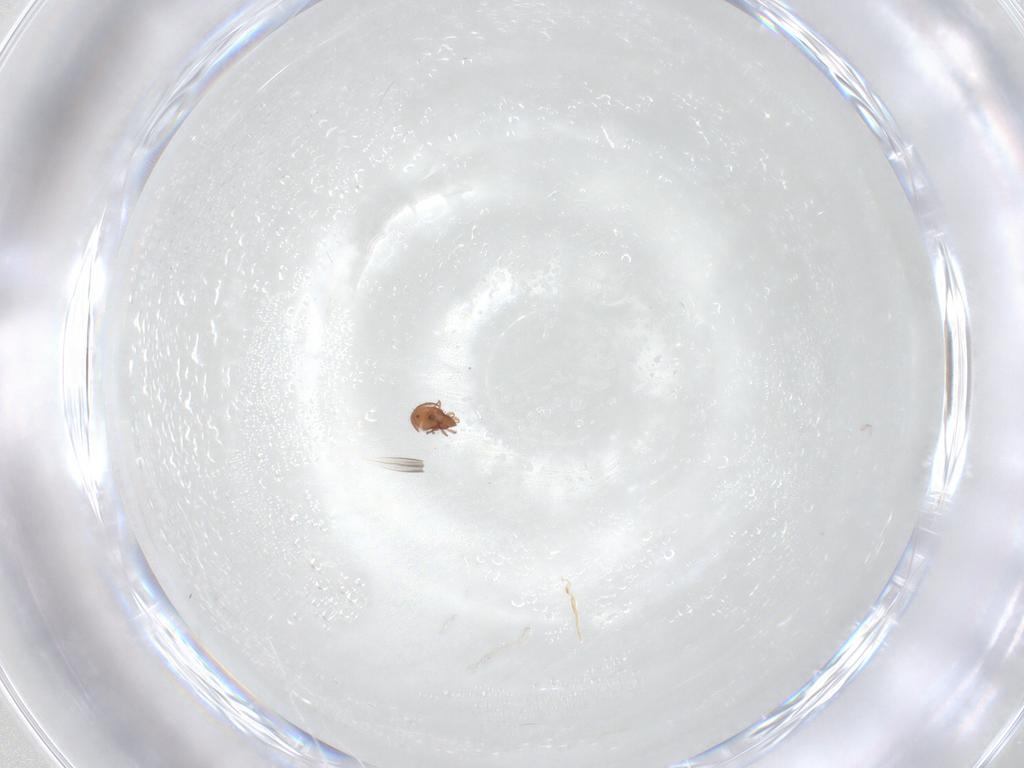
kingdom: Animalia
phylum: Arthropoda
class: Arachnida
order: Sarcoptiformes
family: Oribatulidae
